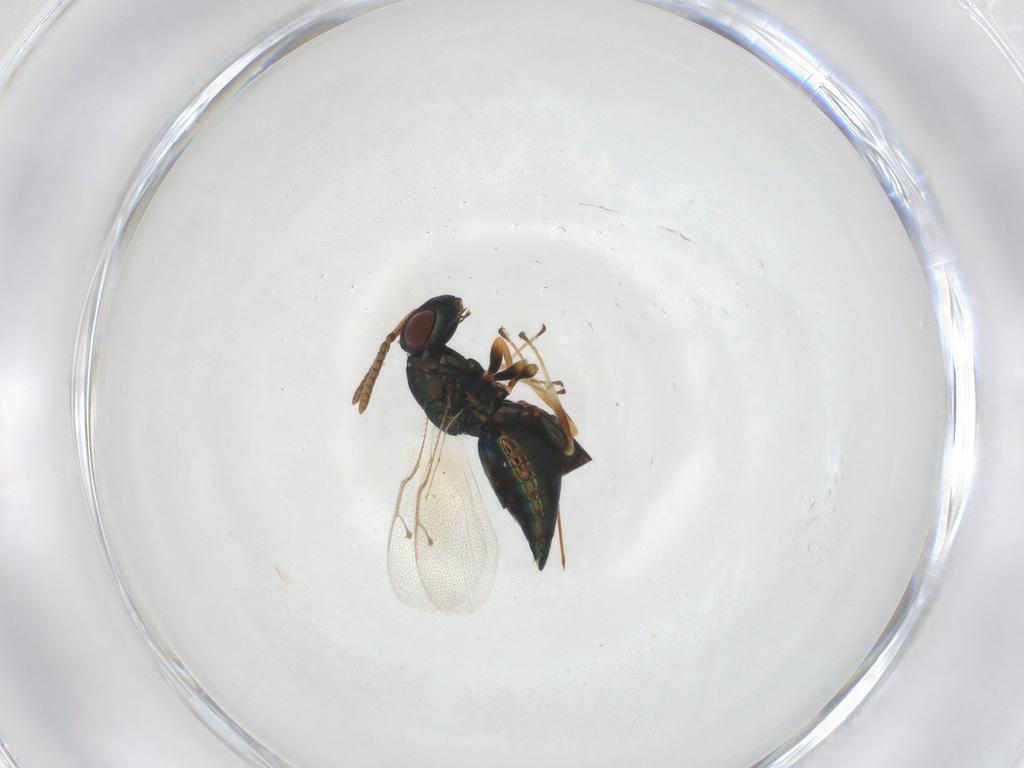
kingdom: Animalia
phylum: Arthropoda
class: Insecta
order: Hymenoptera
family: Pteromalidae
